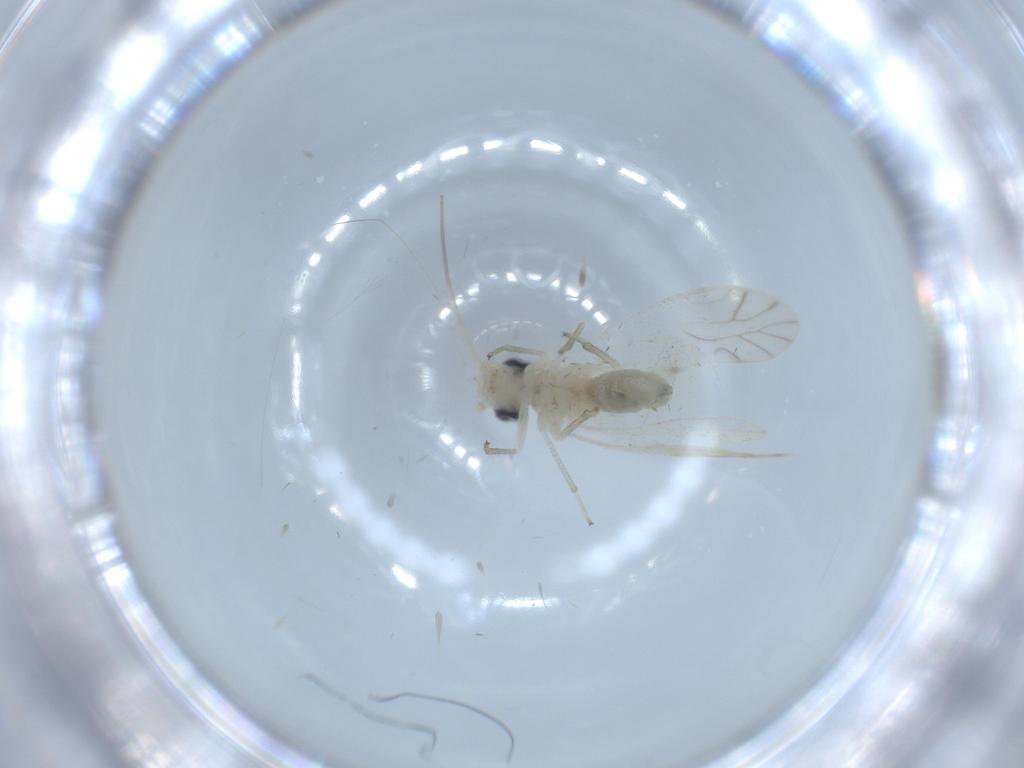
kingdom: Animalia
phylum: Arthropoda
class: Insecta
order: Psocodea
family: Caeciliusidae
